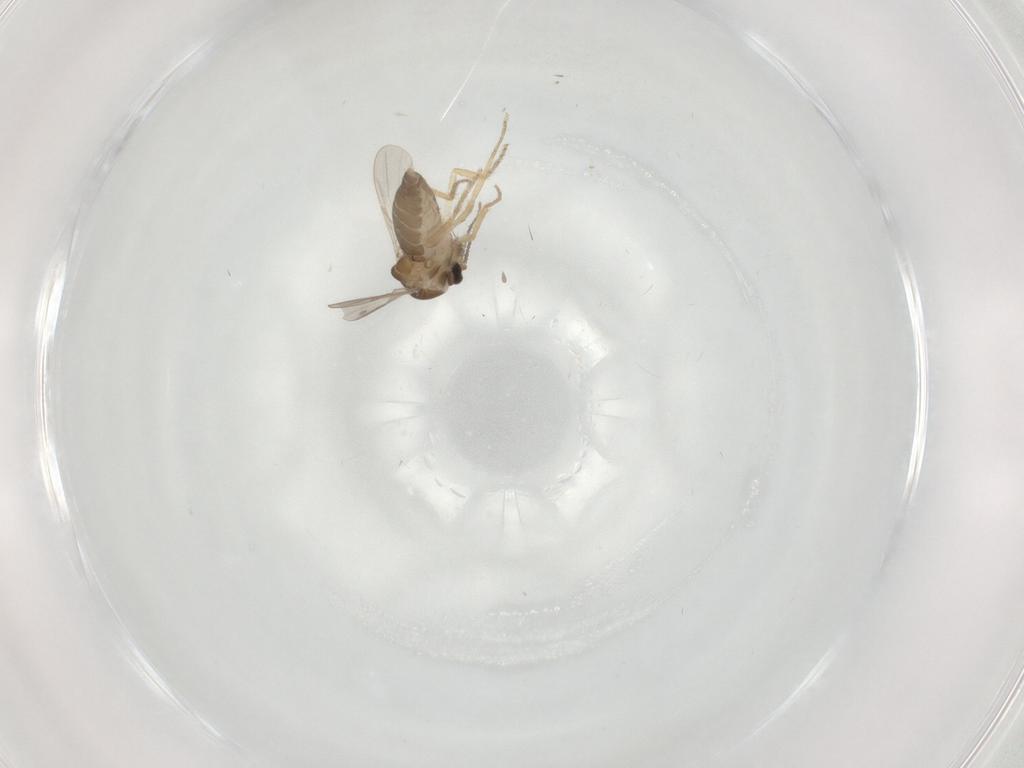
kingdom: Animalia
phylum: Arthropoda
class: Insecta
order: Diptera
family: Ceratopogonidae
